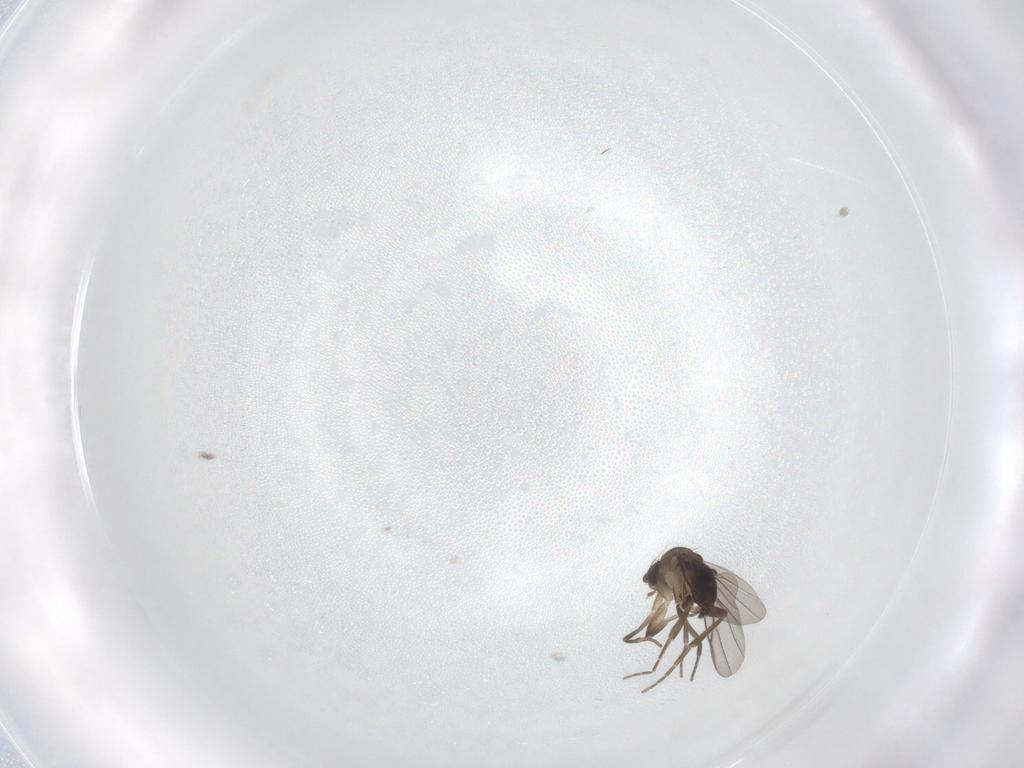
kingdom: Animalia
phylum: Arthropoda
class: Insecta
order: Diptera
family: Phoridae
